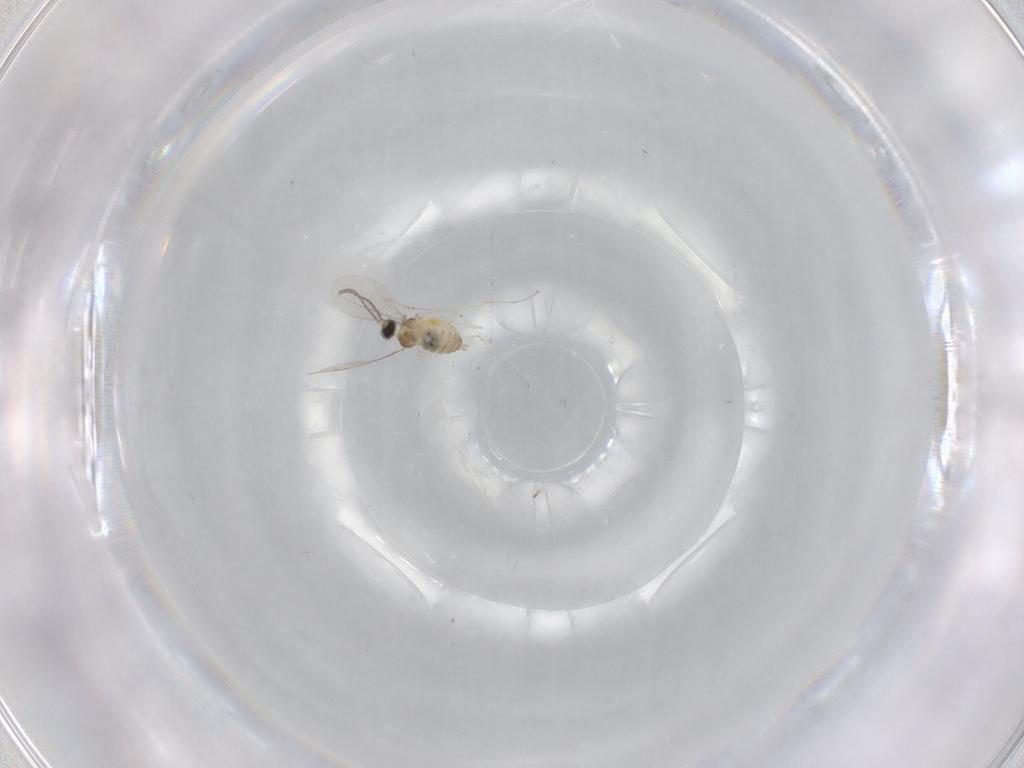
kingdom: Animalia
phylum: Arthropoda
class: Insecta
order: Diptera
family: Cecidomyiidae
